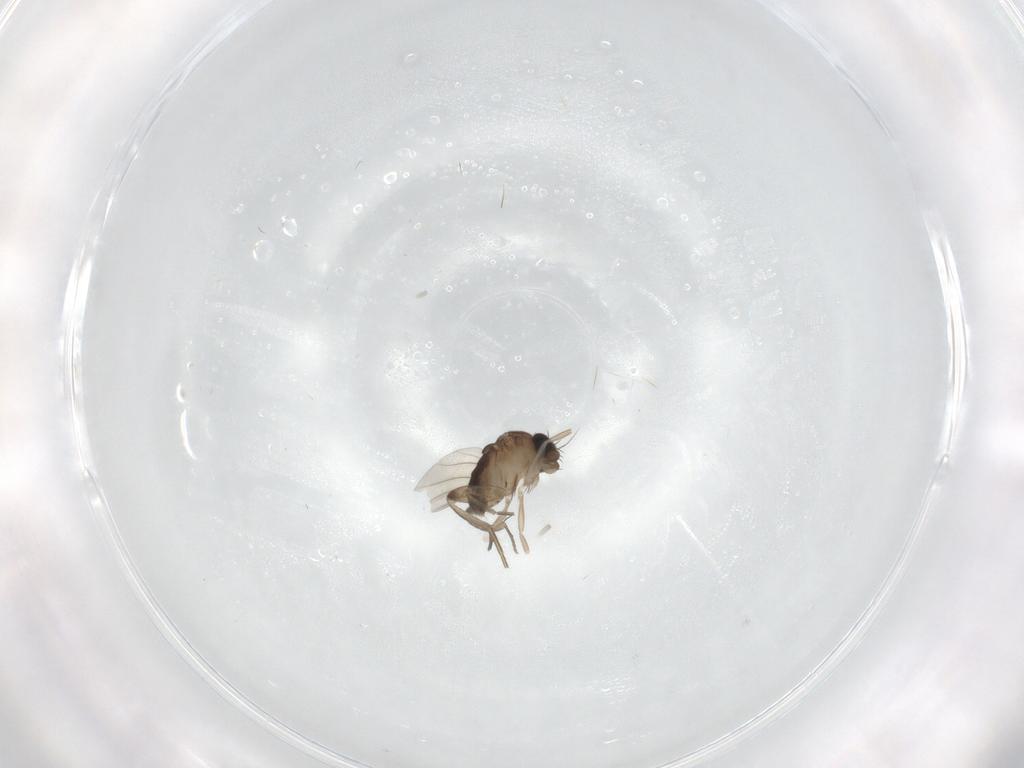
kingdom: Animalia
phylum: Arthropoda
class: Insecta
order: Diptera
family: Phoridae
